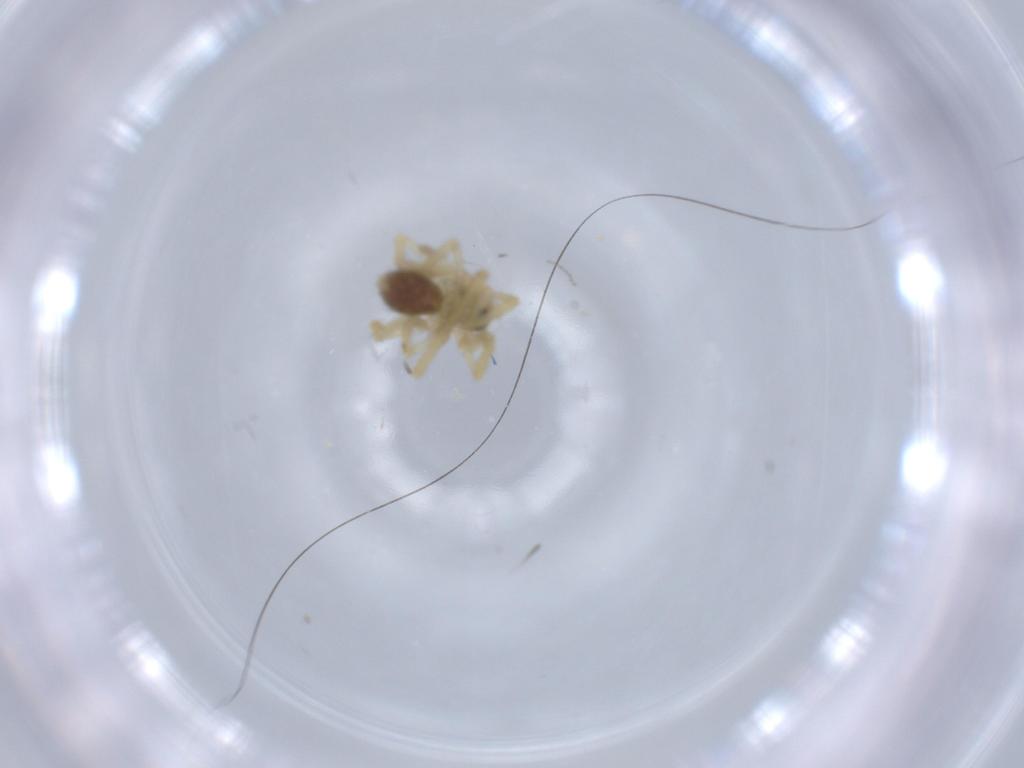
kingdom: Animalia
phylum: Arthropoda
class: Arachnida
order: Araneae
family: Linyphiidae
